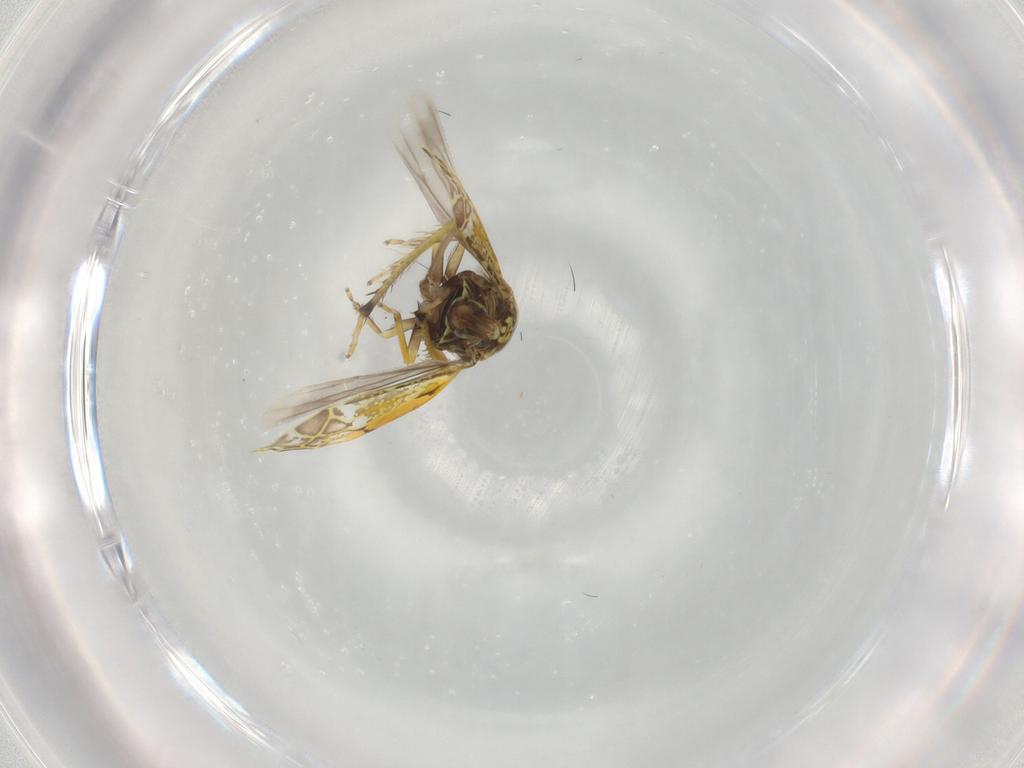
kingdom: Animalia
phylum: Arthropoda
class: Insecta
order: Hemiptera
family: Cicadellidae
